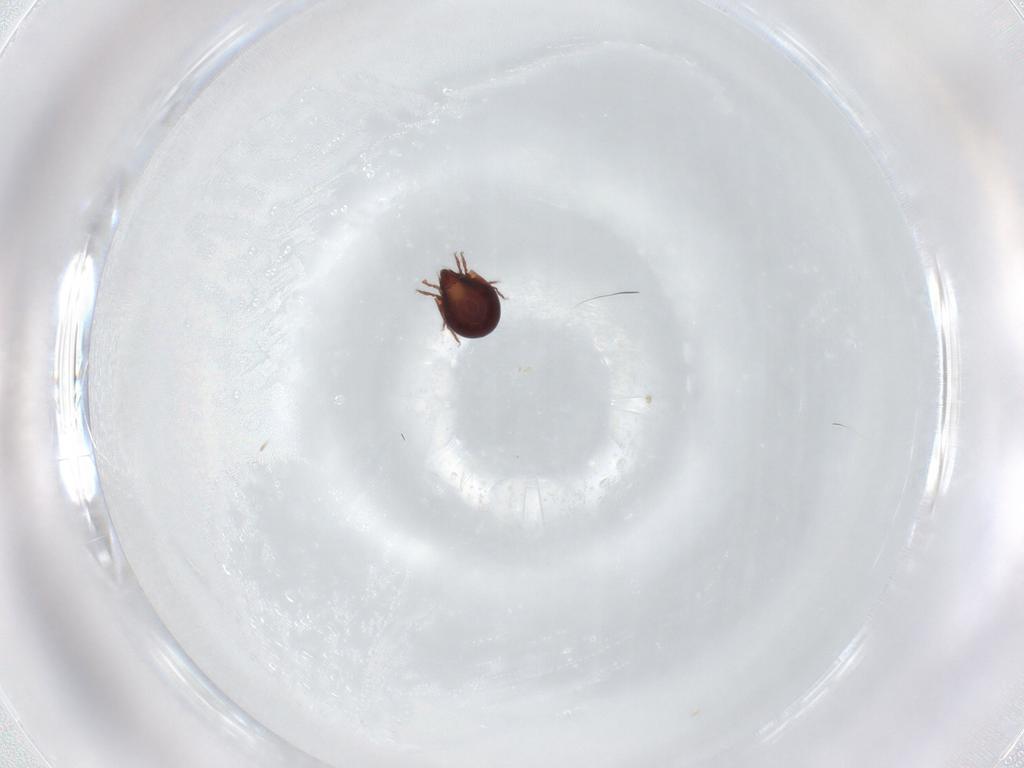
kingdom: Animalia
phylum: Arthropoda
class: Arachnida
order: Sarcoptiformes
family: Humerobatidae
